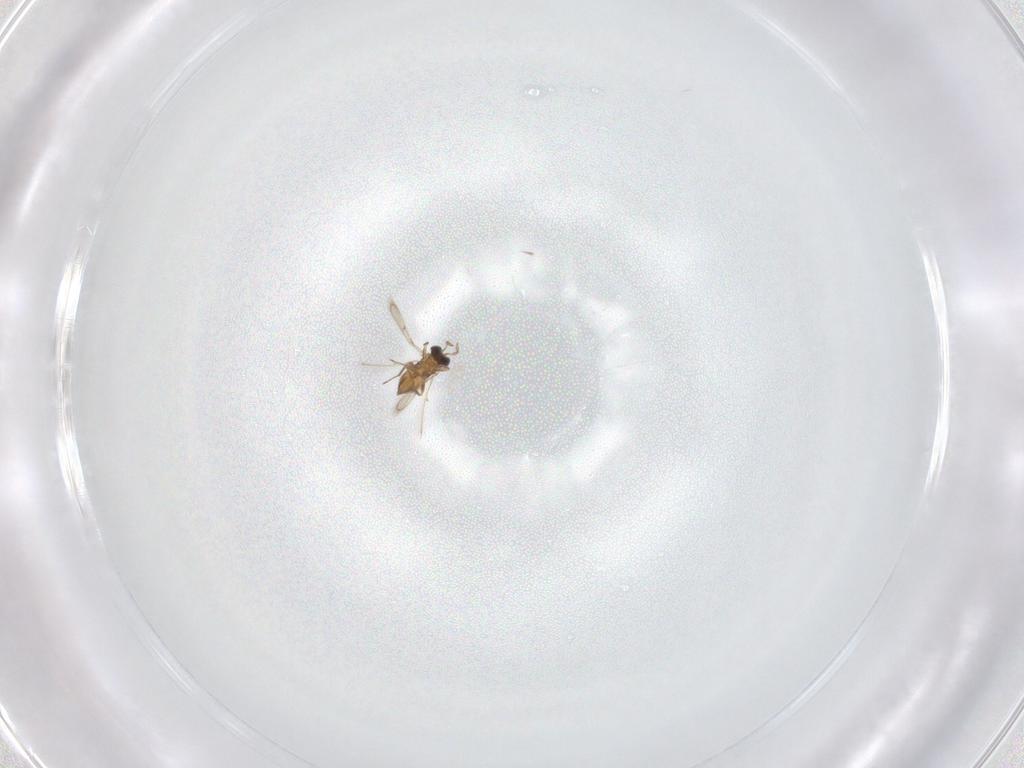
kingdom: Animalia
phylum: Arthropoda
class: Insecta
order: Hymenoptera
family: Trichogrammatidae
